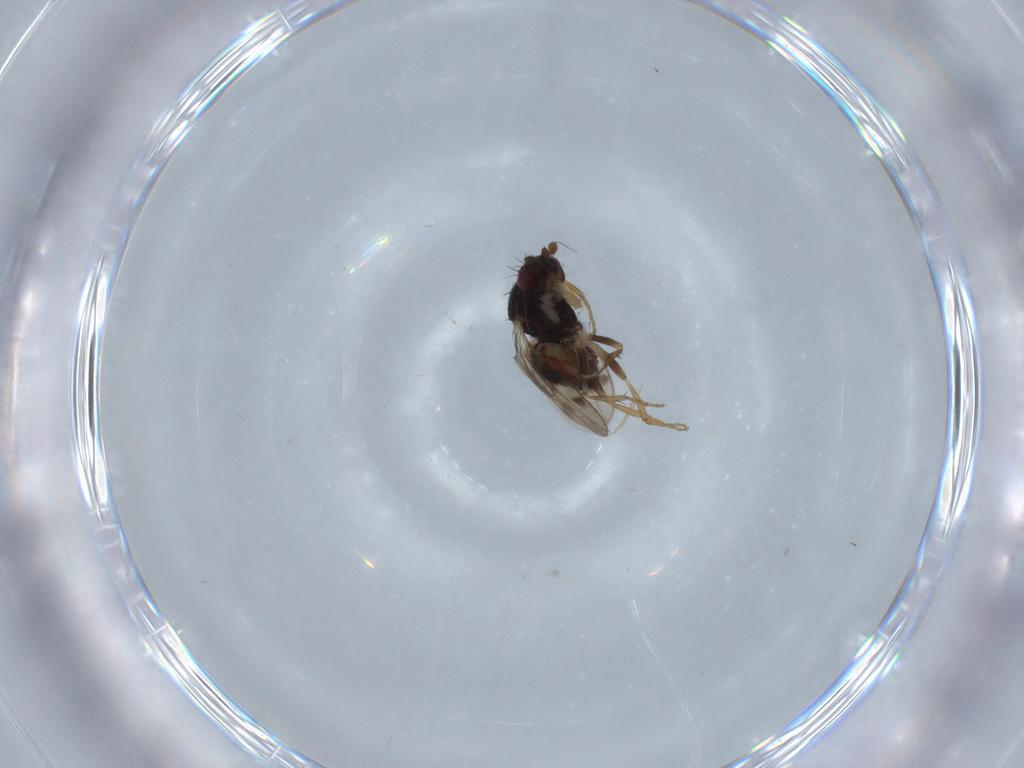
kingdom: Animalia
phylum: Arthropoda
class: Insecta
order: Diptera
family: Sphaeroceridae
